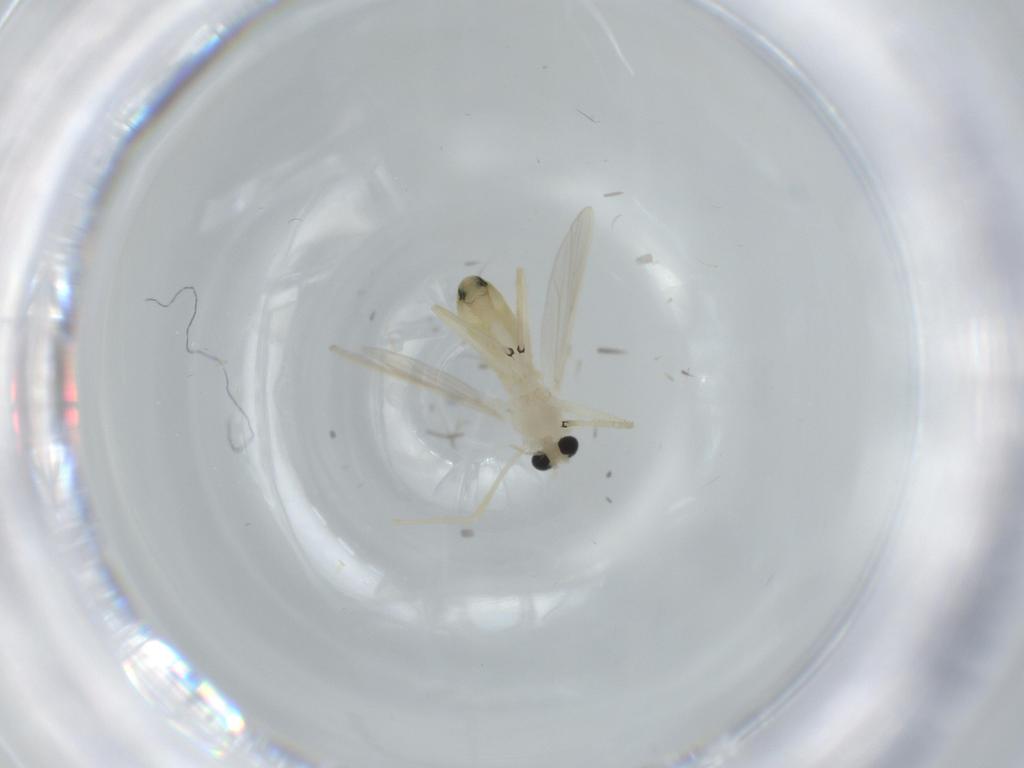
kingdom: Animalia
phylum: Arthropoda
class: Insecta
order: Diptera
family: Chironomidae
